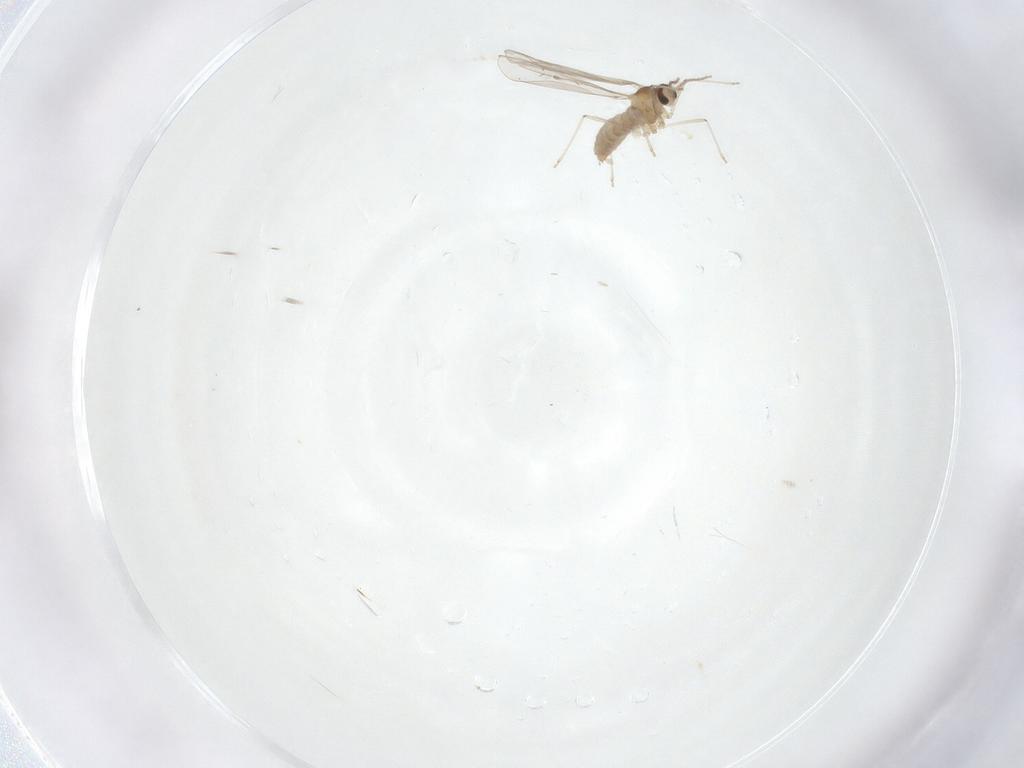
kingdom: Animalia
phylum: Arthropoda
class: Insecta
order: Diptera
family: Cecidomyiidae
